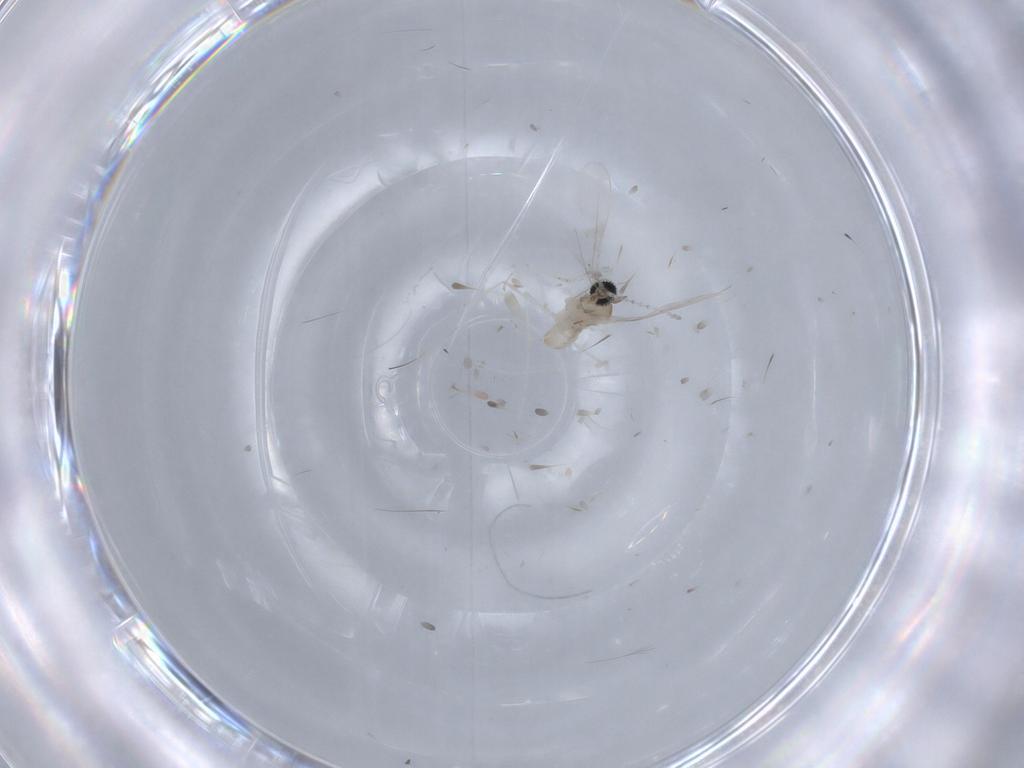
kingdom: Animalia
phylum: Arthropoda
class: Insecta
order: Diptera
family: Cecidomyiidae
